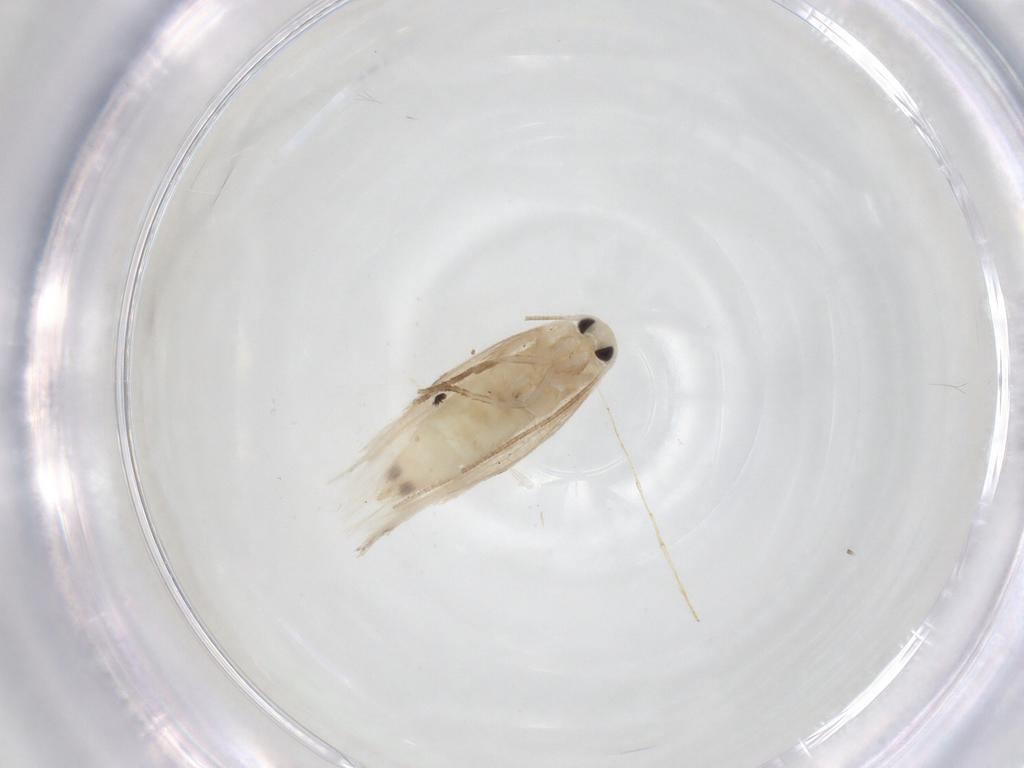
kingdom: Animalia
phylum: Arthropoda
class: Insecta
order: Lepidoptera
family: Lyonetiidae
